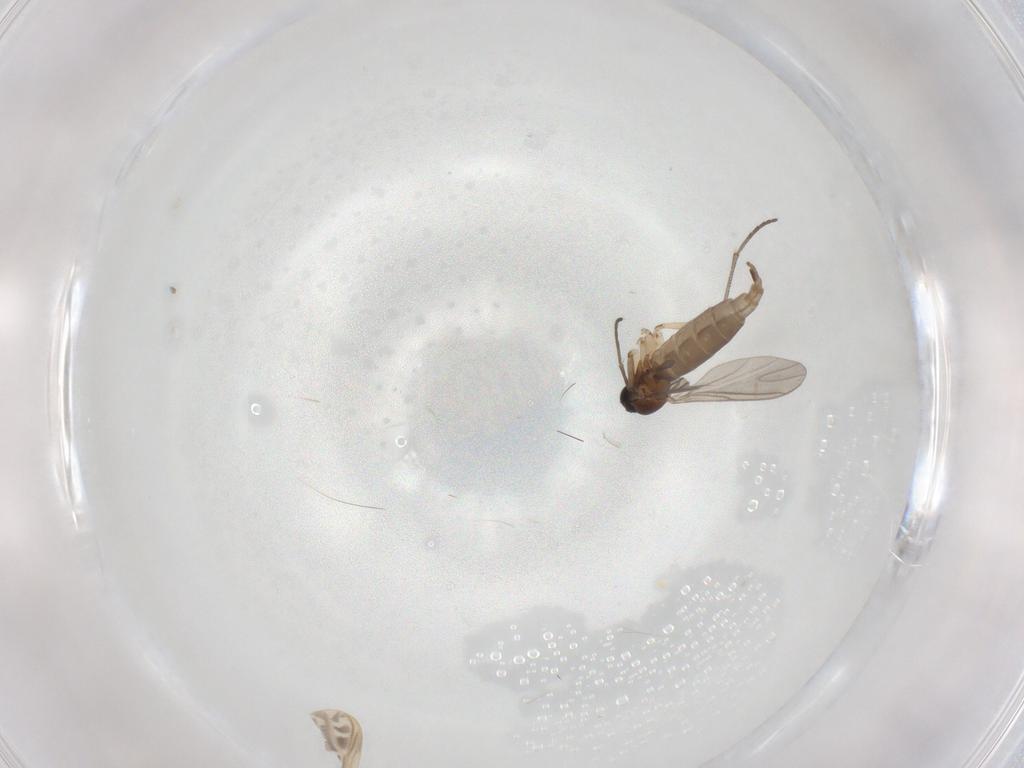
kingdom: Animalia
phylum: Arthropoda
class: Insecta
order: Diptera
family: Sciaridae
